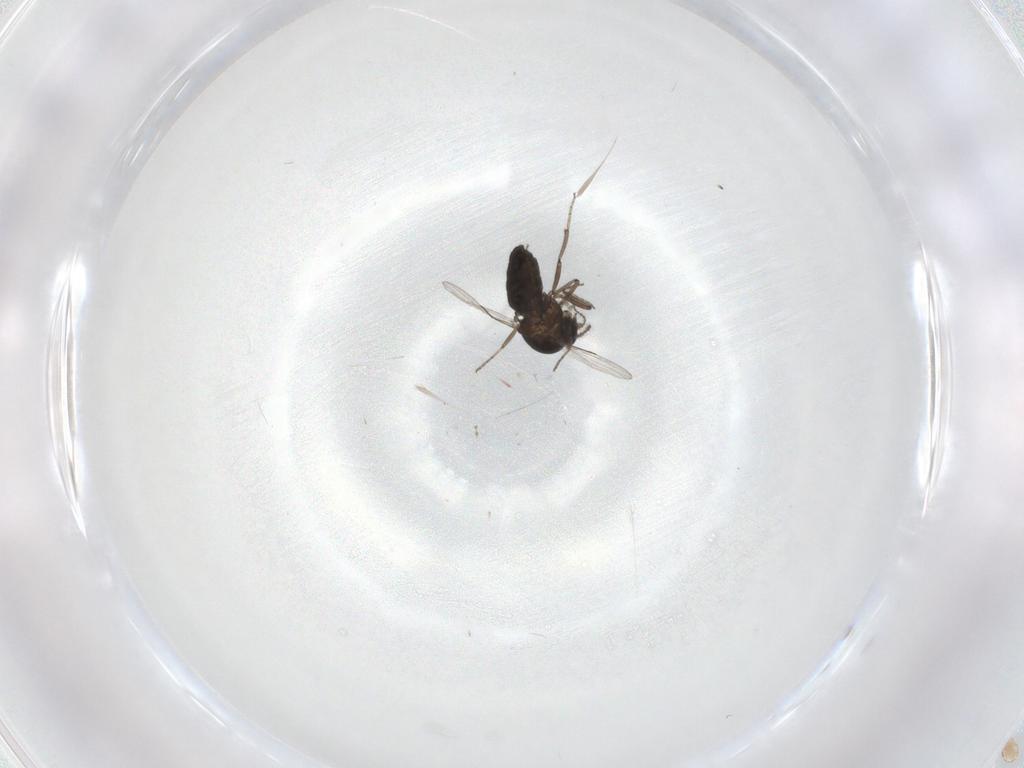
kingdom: Animalia
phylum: Arthropoda
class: Insecta
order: Diptera
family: Ceratopogonidae
